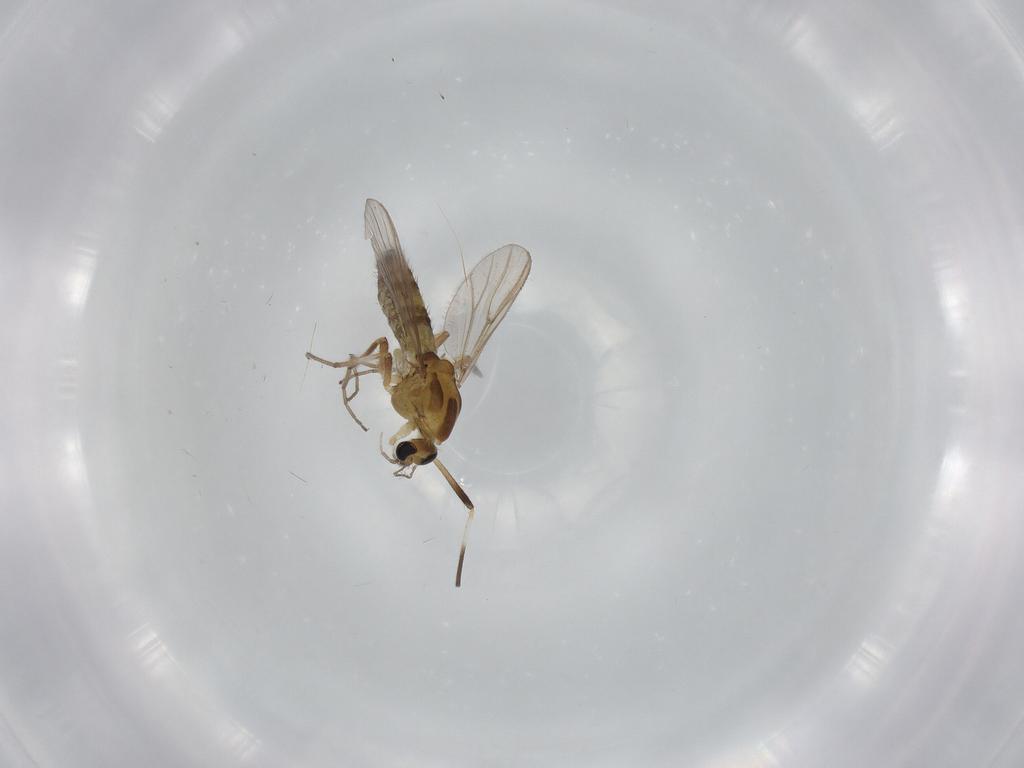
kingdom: Animalia
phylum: Arthropoda
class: Insecta
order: Diptera
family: Chironomidae
